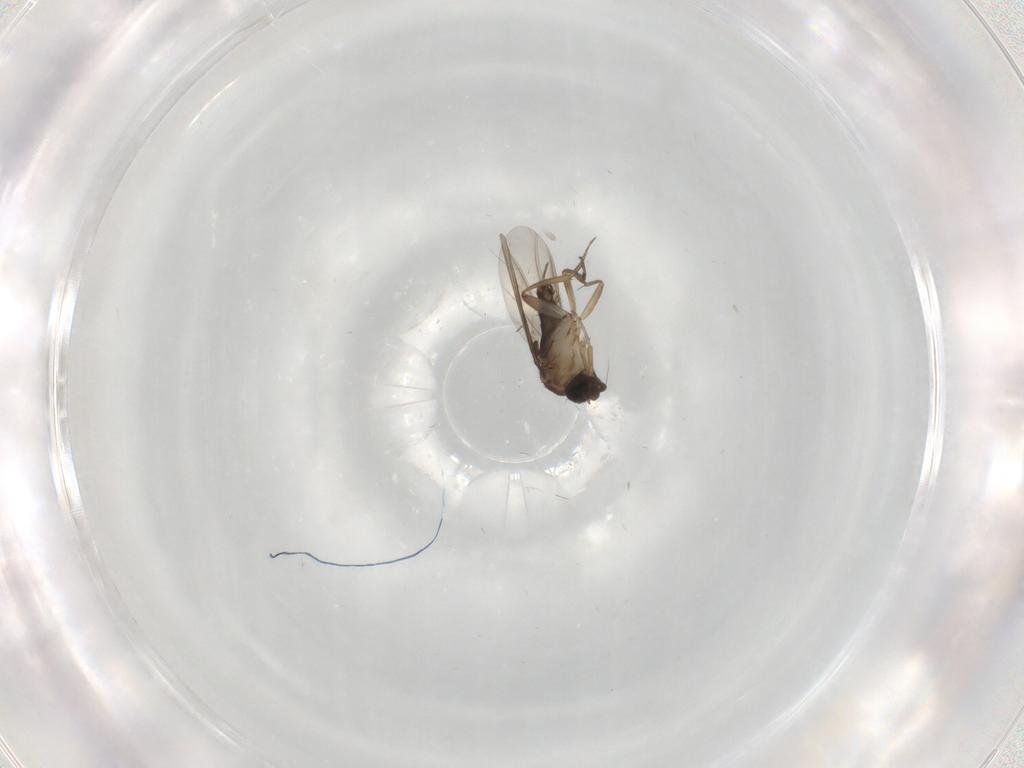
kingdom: Animalia
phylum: Arthropoda
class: Insecta
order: Diptera
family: Phoridae
